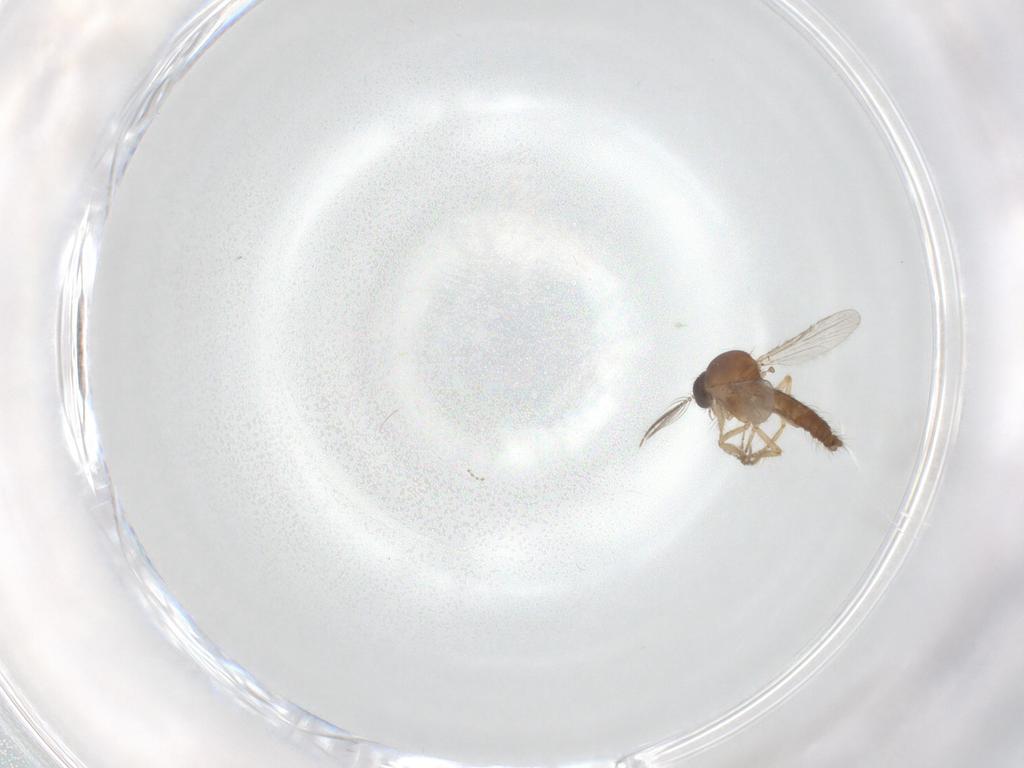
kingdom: Animalia
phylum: Arthropoda
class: Insecta
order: Diptera
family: Ceratopogonidae
